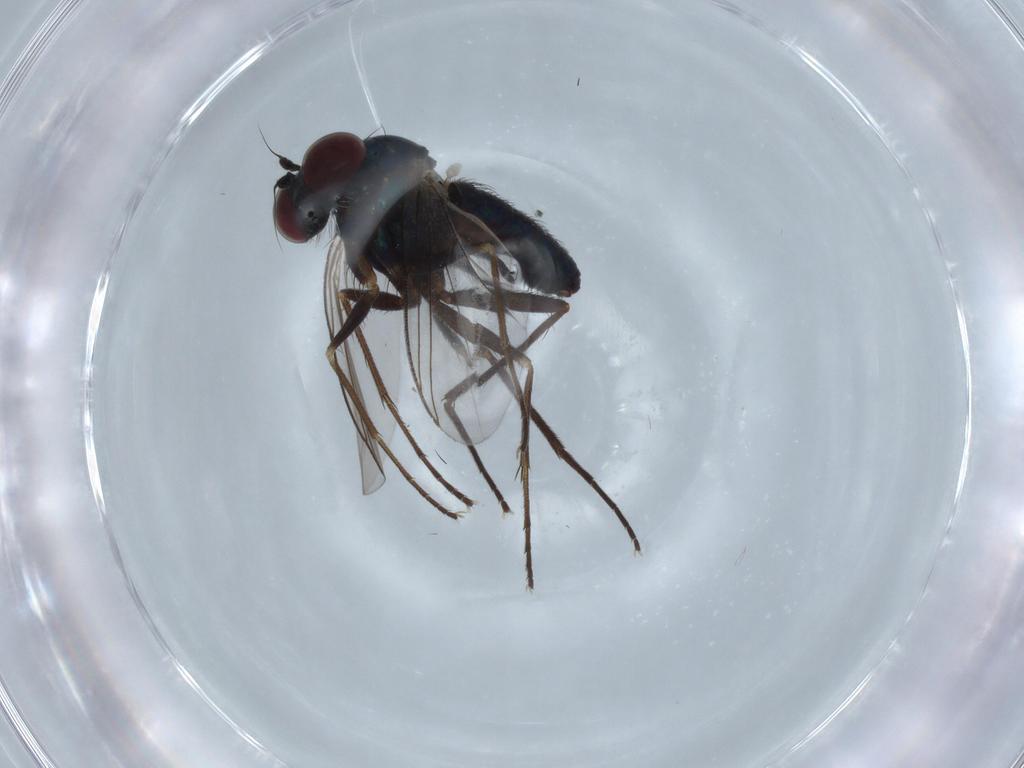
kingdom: Animalia
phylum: Arthropoda
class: Insecta
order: Diptera
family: Dolichopodidae
